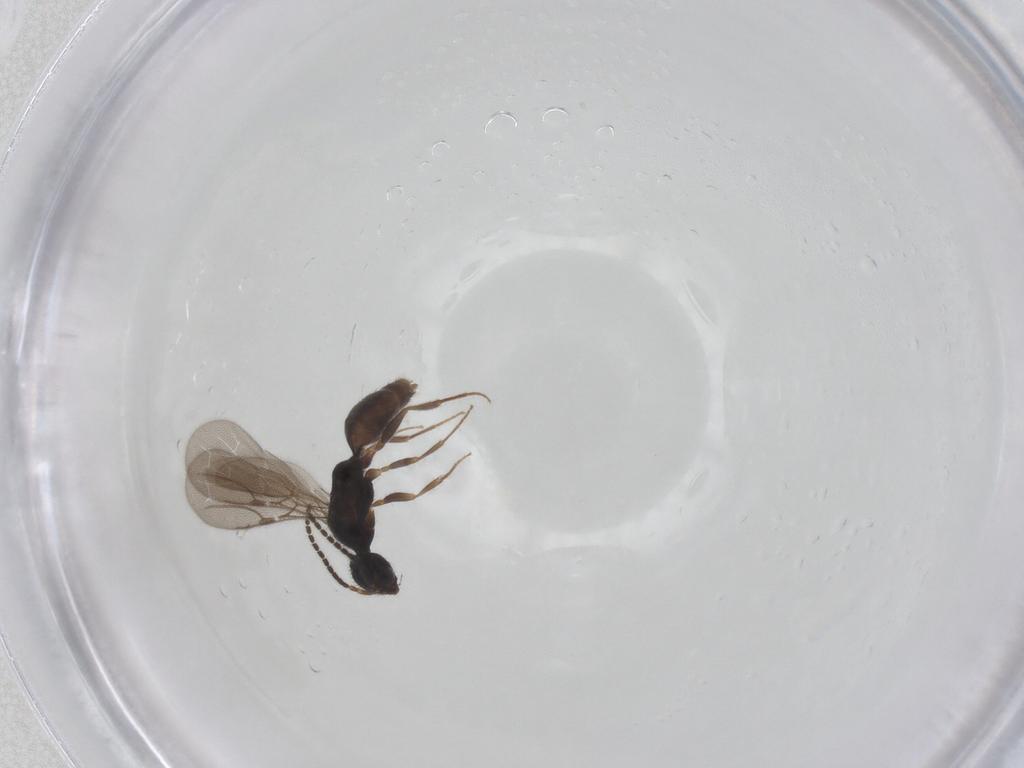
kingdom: Animalia
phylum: Arthropoda
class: Insecta
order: Hymenoptera
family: Bethylidae
